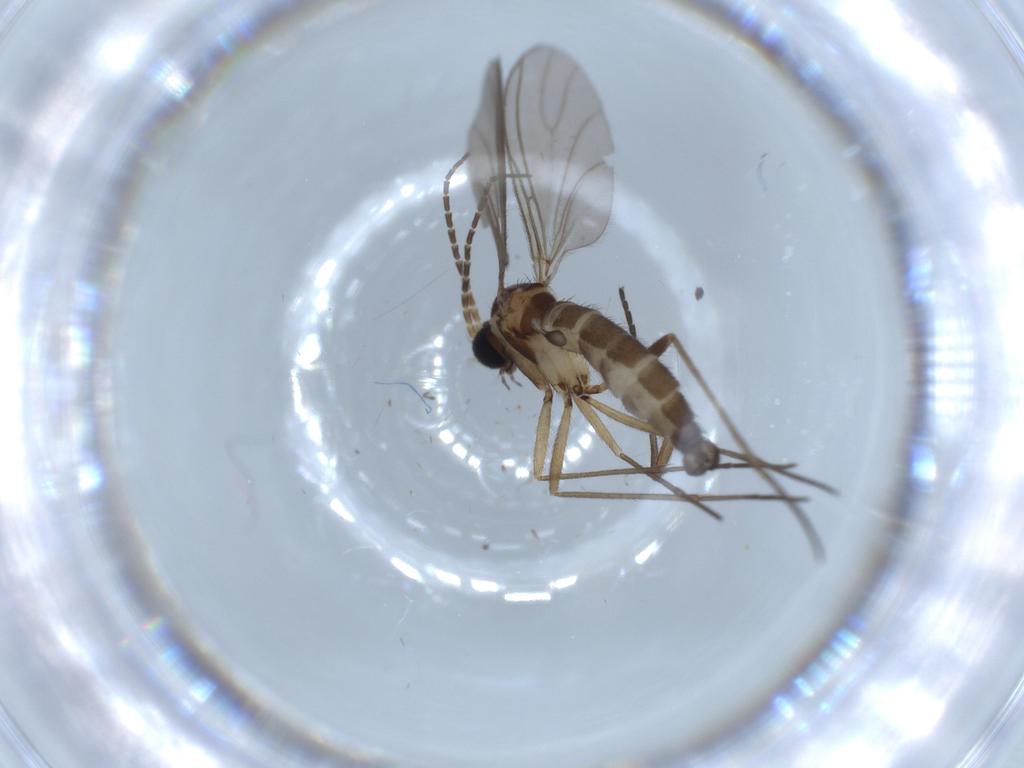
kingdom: Animalia
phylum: Arthropoda
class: Insecta
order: Diptera
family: Sciaridae
